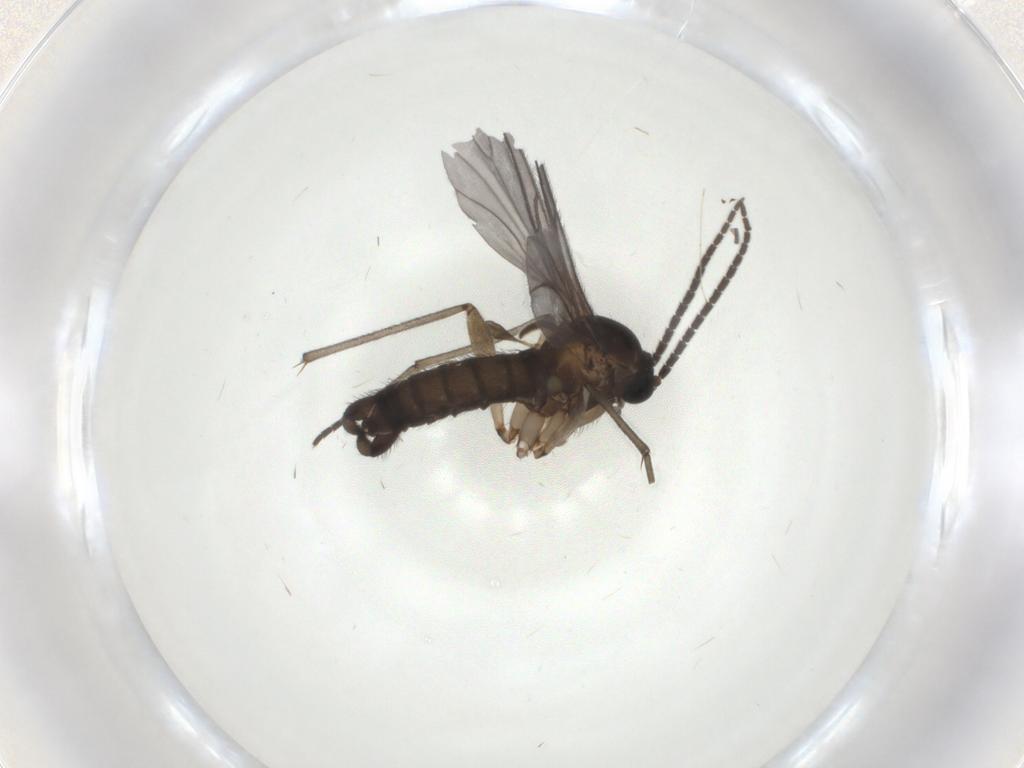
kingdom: Animalia
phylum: Arthropoda
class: Insecta
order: Diptera
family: Sciaridae
